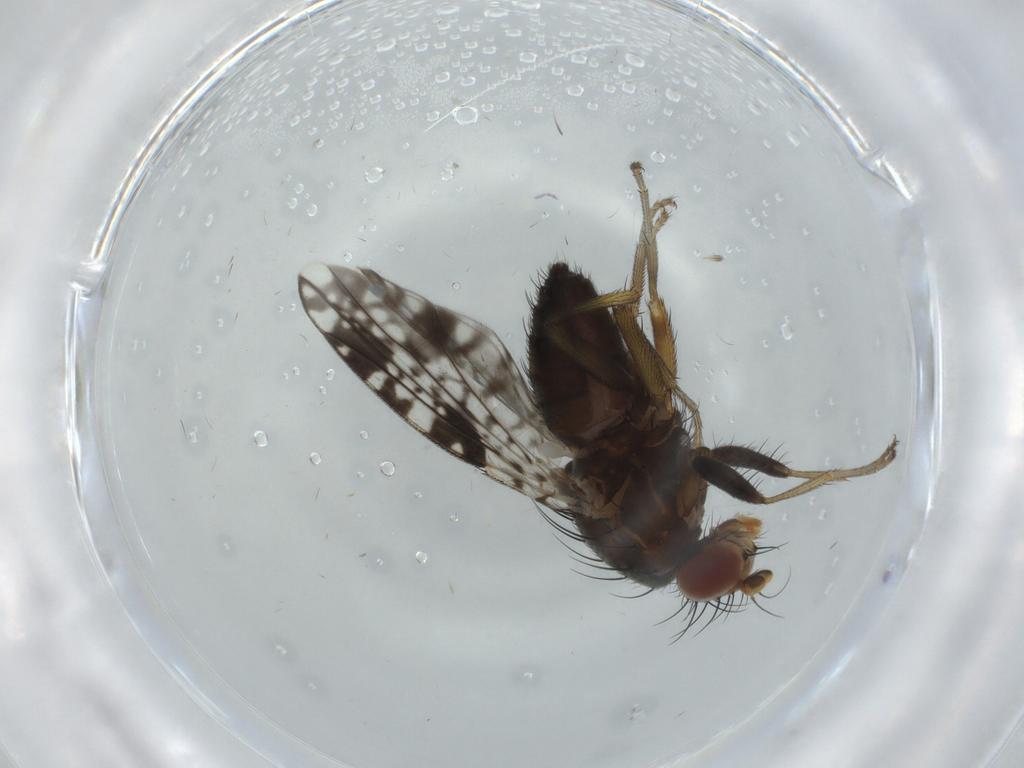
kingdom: Animalia
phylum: Arthropoda
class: Insecta
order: Diptera
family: Tephritidae
